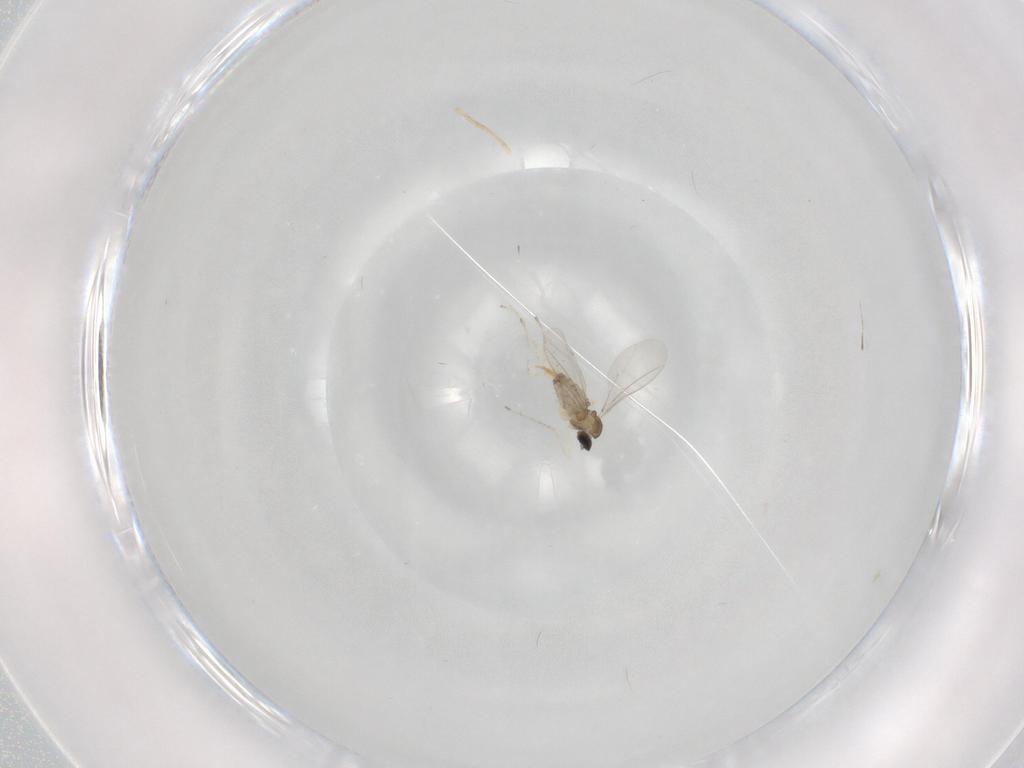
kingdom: Animalia
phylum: Arthropoda
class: Insecta
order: Diptera
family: Cecidomyiidae
